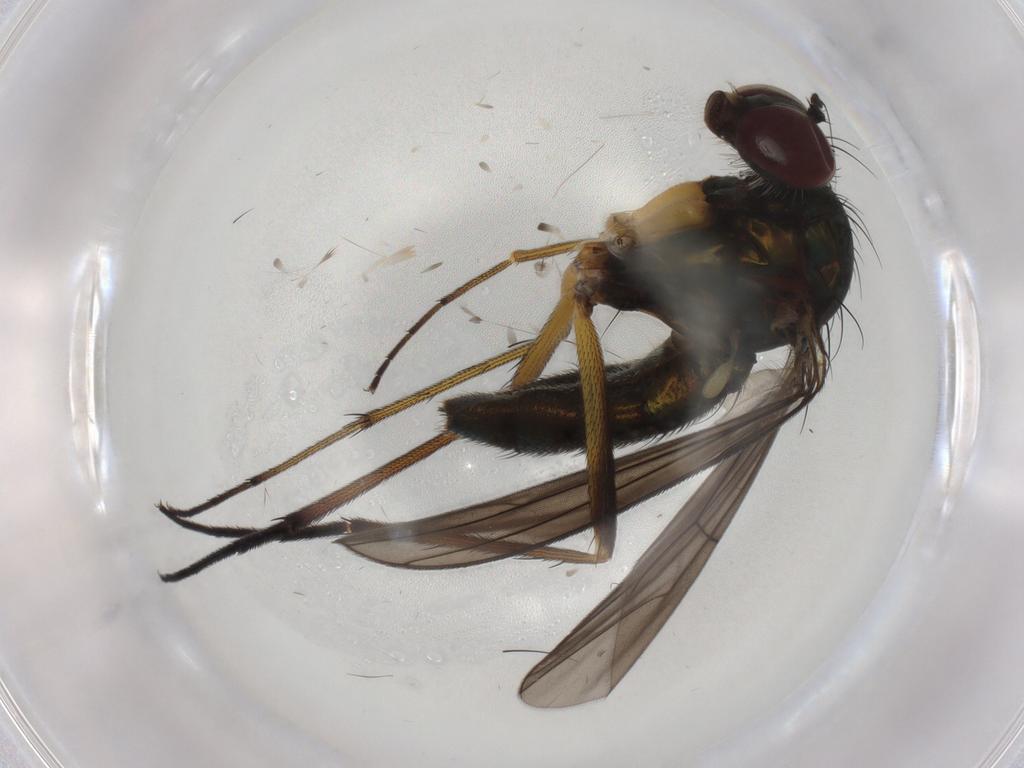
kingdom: Animalia
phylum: Arthropoda
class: Insecta
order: Diptera
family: Dolichopodidae
